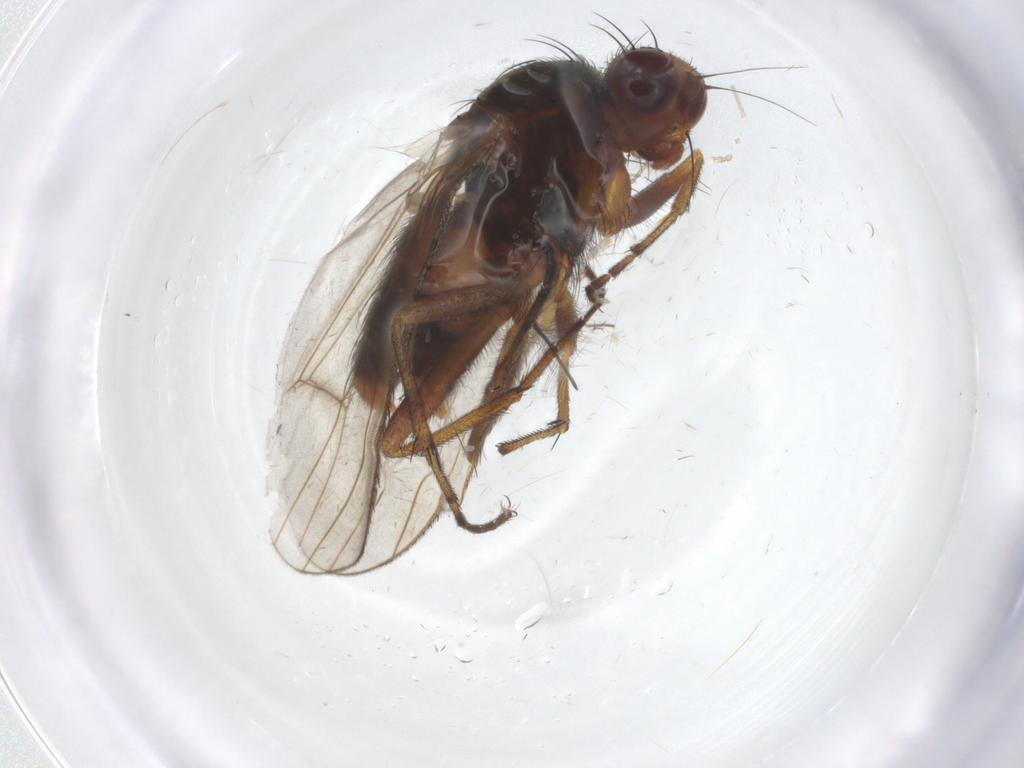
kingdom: Animalia
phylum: Arthropoda
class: Insecta
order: Diptera
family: Heleomyzidae
